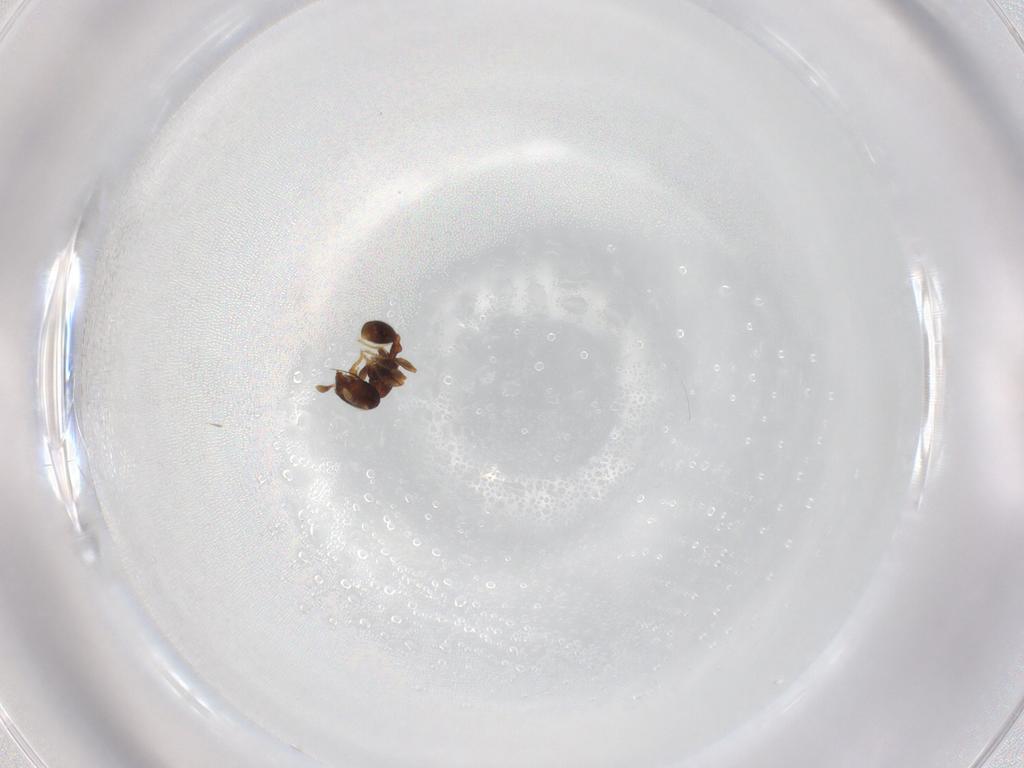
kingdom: Animalia
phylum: Arthropoda
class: Insecta
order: Hymenoptera
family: Formicidae
